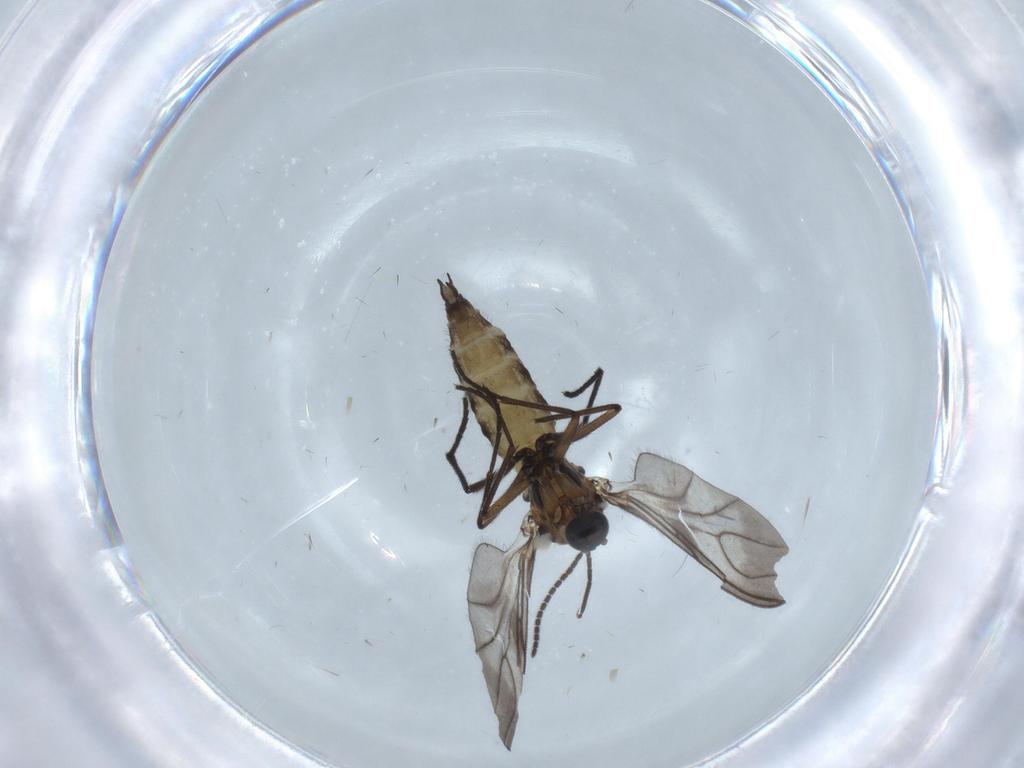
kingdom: Animalia
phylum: Arthropoda
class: Insecta
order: Diptera
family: Sciaridae
